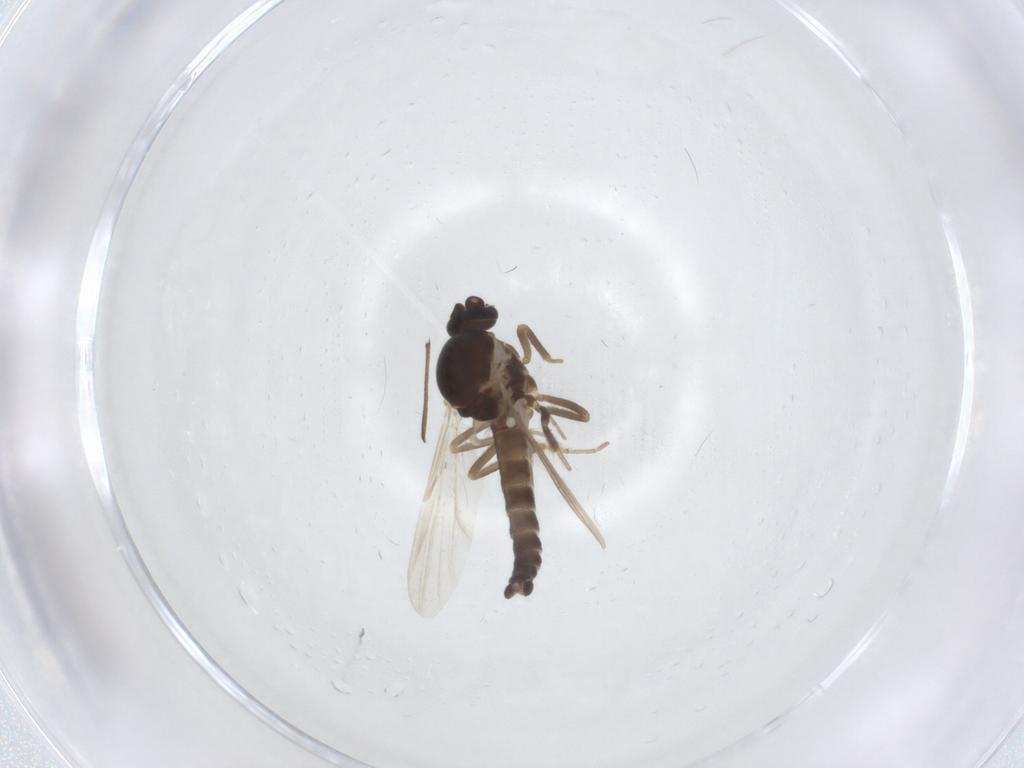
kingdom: Animalia
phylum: Arthropoda
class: Insecta
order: Diptera
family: Ceratopogonidae
